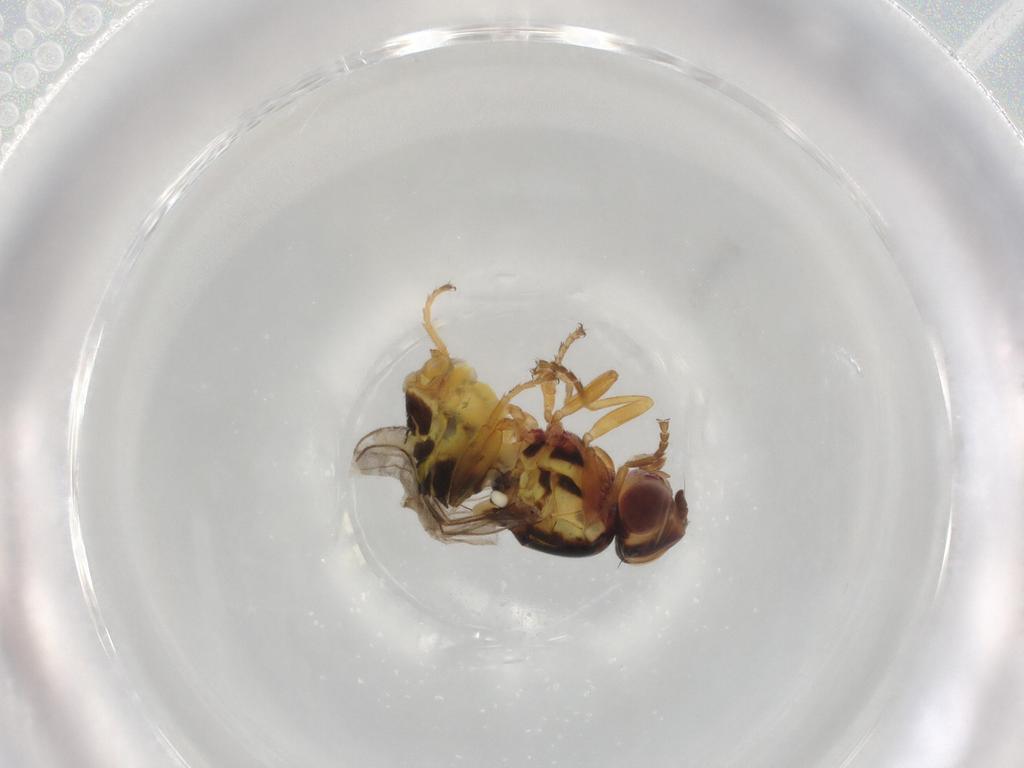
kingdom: Animalia
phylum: Arthropoda
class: Insecta
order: Diptera
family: Chloropidae
